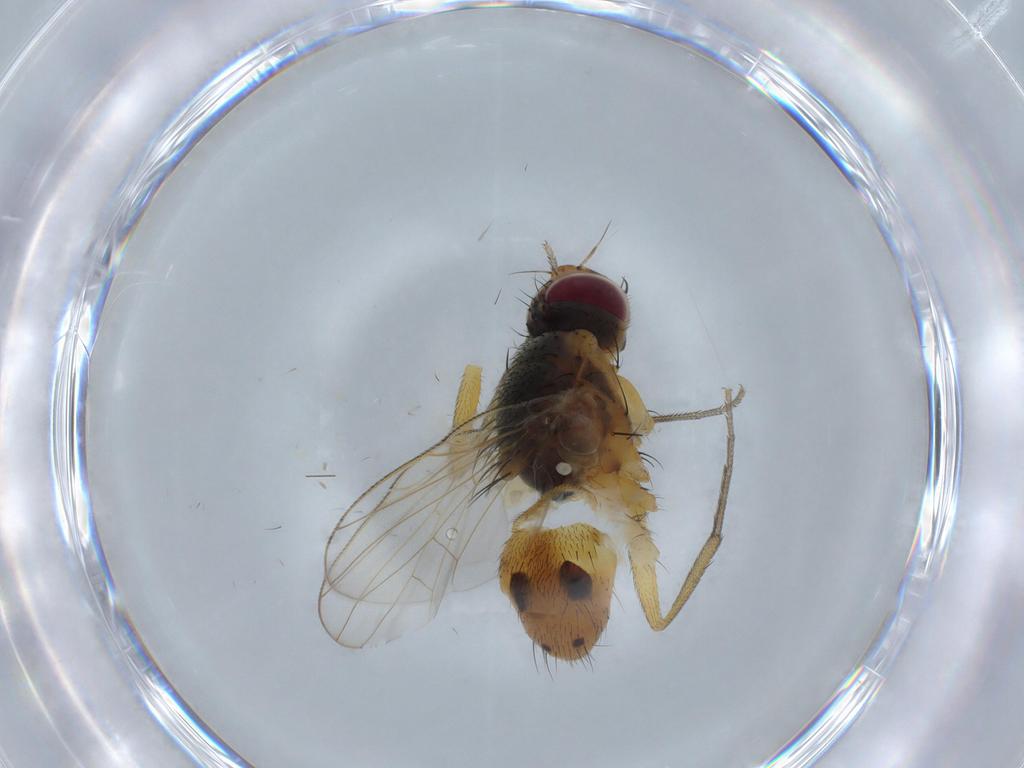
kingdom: Animalia
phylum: Arthropoda
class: Insecta
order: Diptera
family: Muscidae
